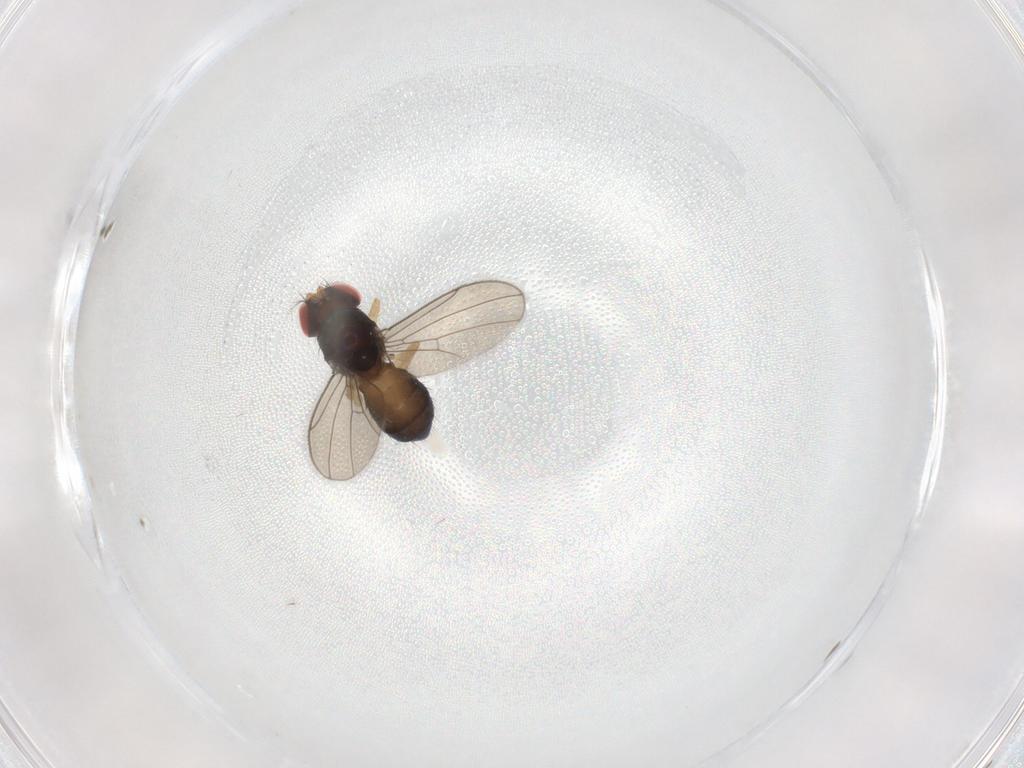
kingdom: Animalia
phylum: Arthropoda
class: Insecta
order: Diptera
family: Drosophilidae
